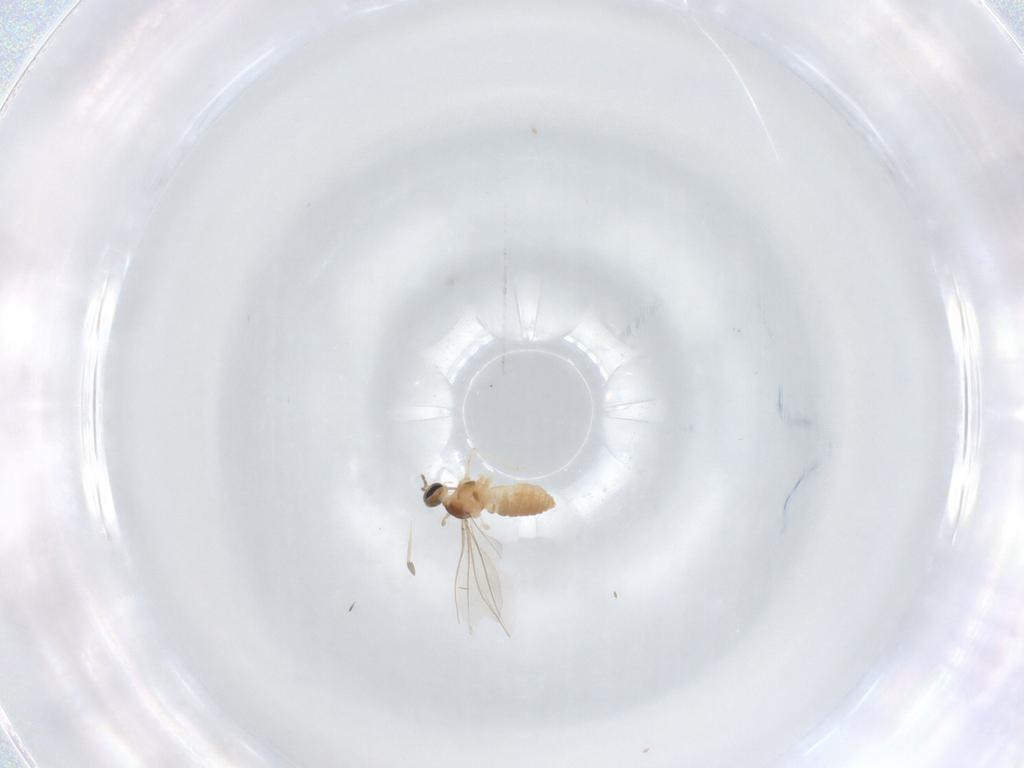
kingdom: Animalia
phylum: Arthropoda
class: Insecta
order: Diptera
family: Cecidomyiidae
